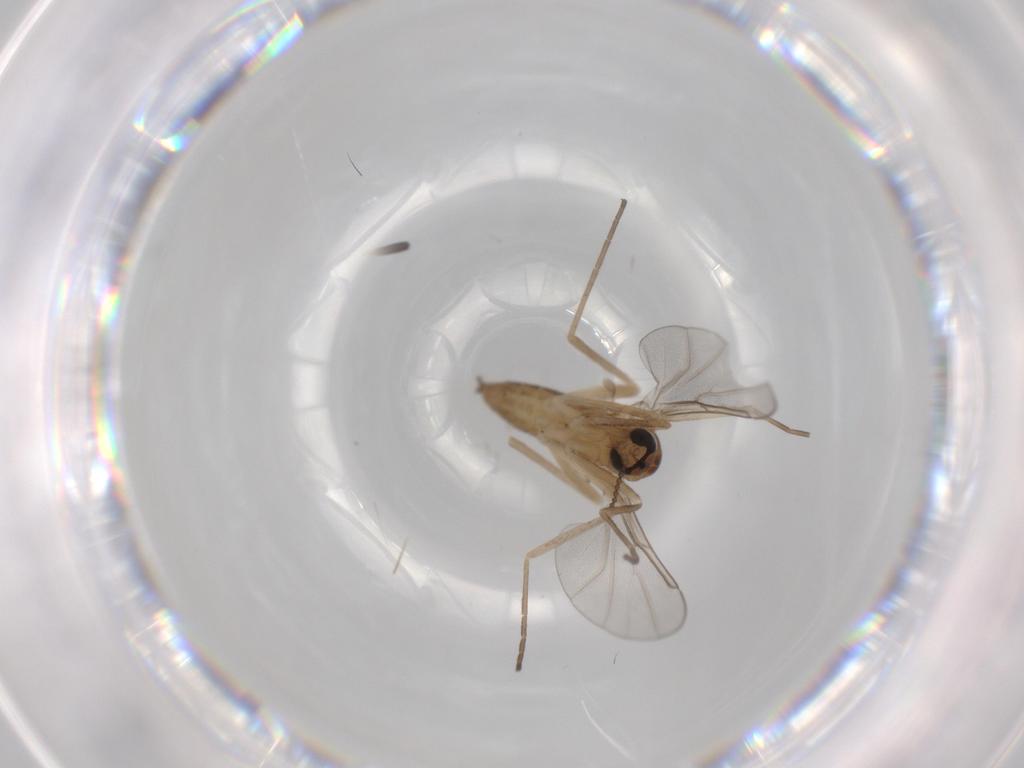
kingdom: Animalia
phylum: Arthropoda
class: Insecta
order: Diptera
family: Cecidomyiidae
